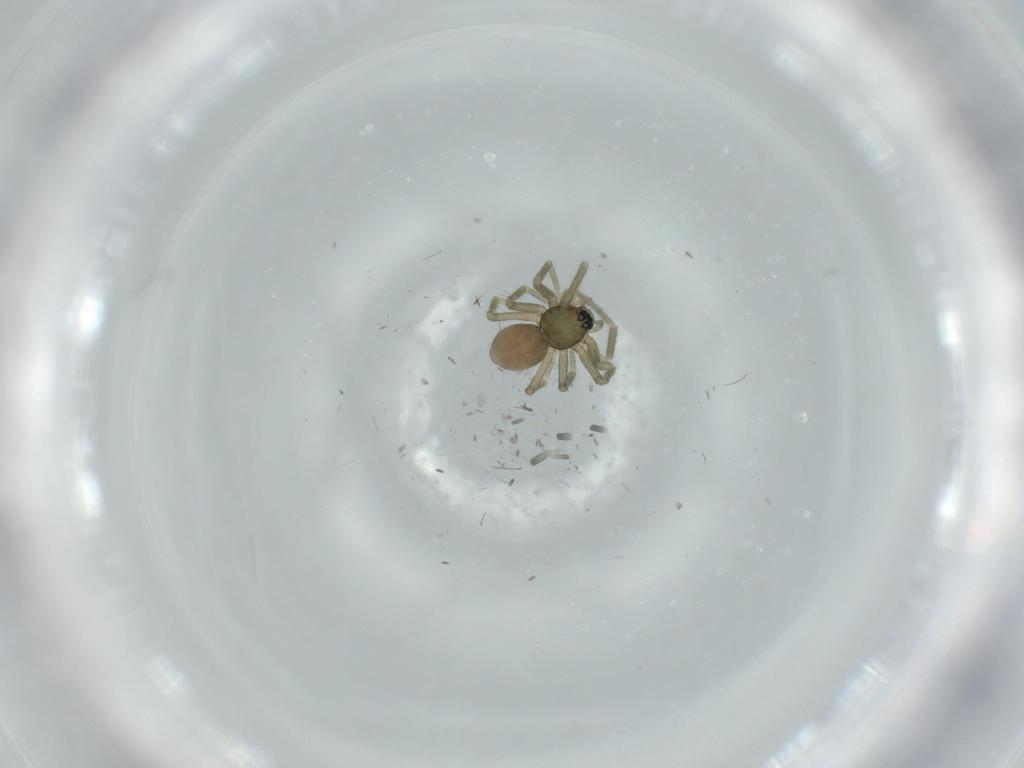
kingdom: Animalia
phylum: Arthropoda
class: Arachnida
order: Araneae
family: Linyphiidae
